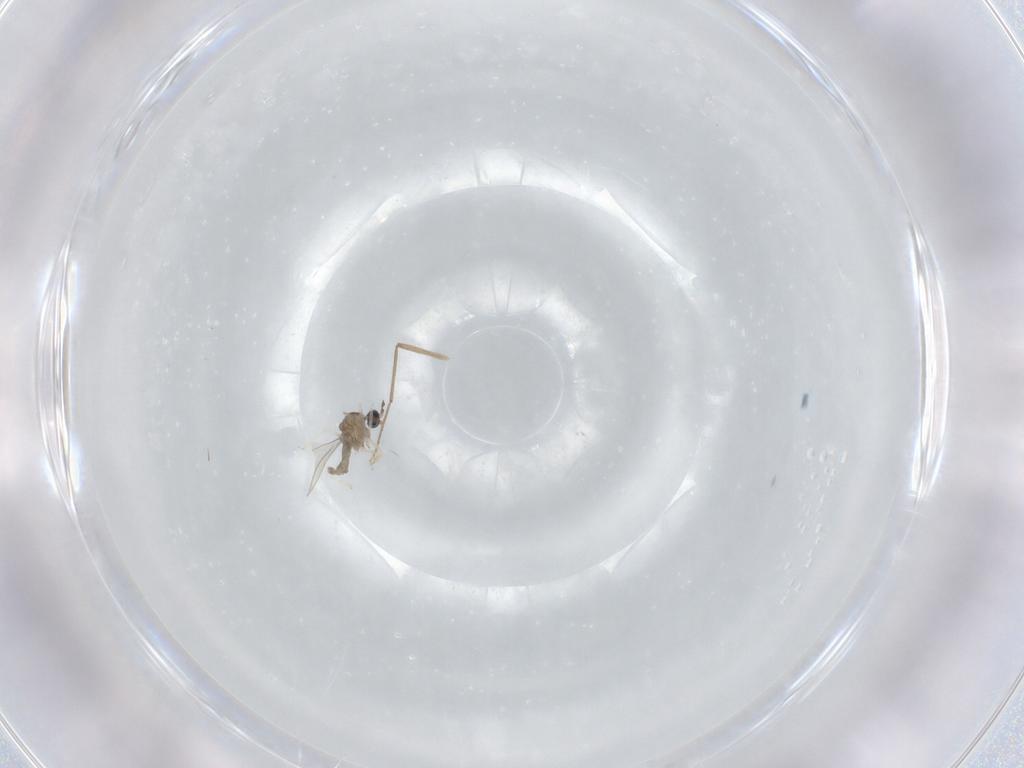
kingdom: Animalia
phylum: Arthropoda
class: Insecta
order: Diptera
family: Cecidomyiidae
